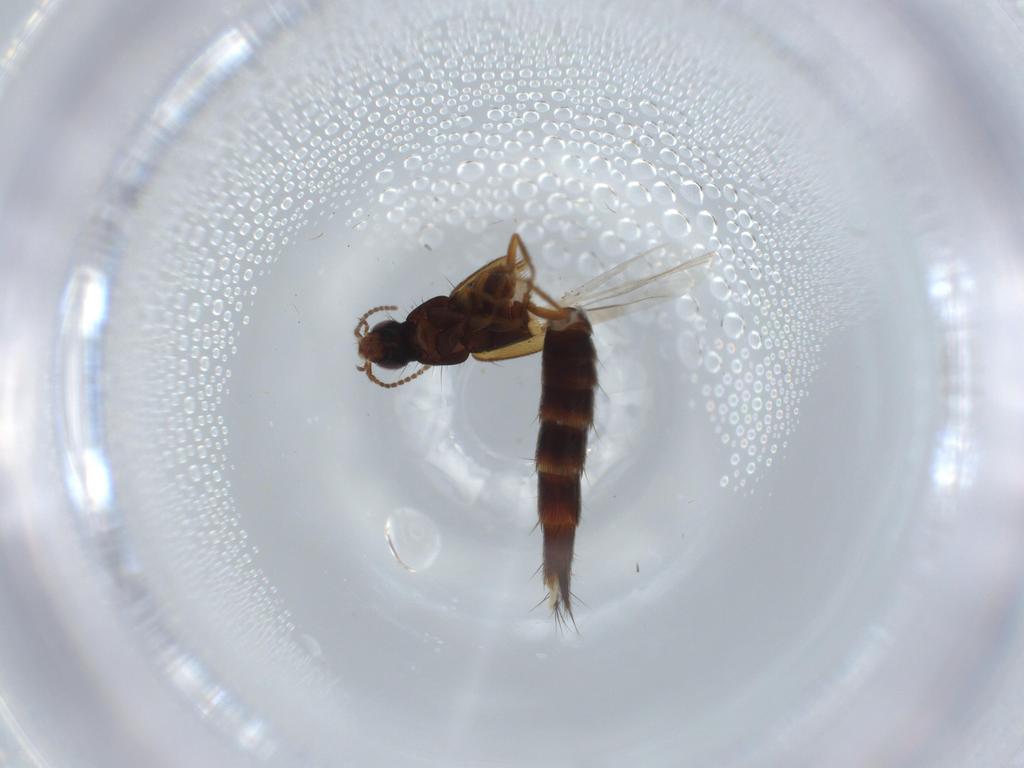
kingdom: Animalia
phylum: Arthropoda
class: Insecta
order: Coleoptera
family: Staphylinidae
